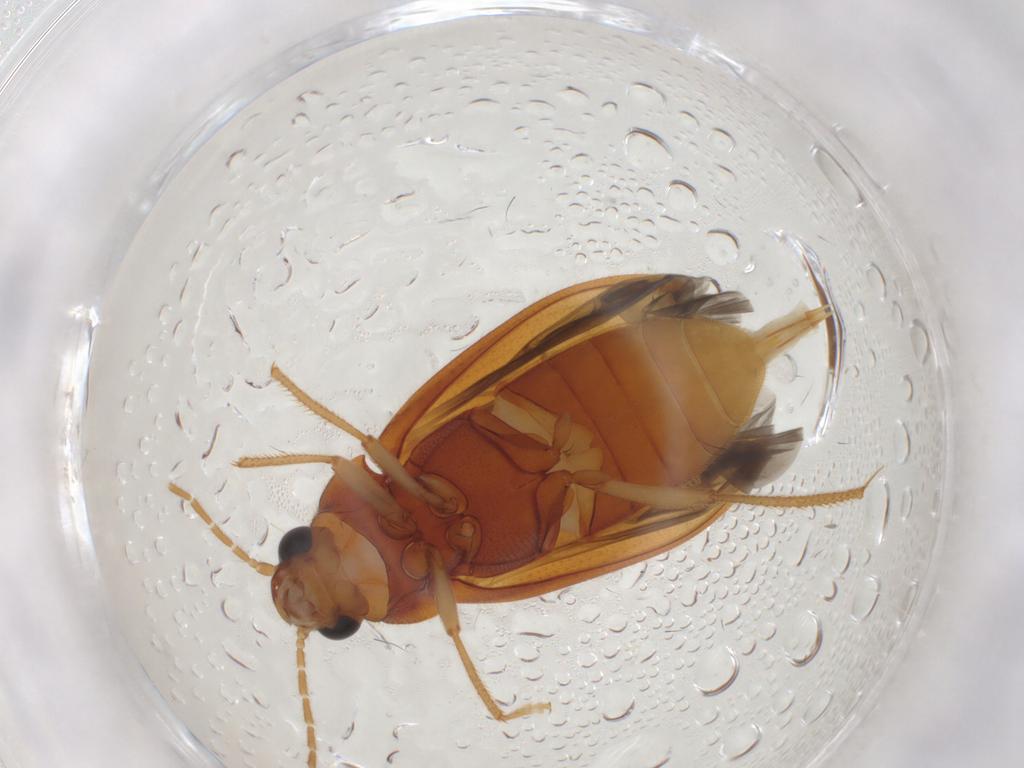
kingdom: Animalia
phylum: Arthropoda
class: Insecta
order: Coleoptera
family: Ptilodactylidae
